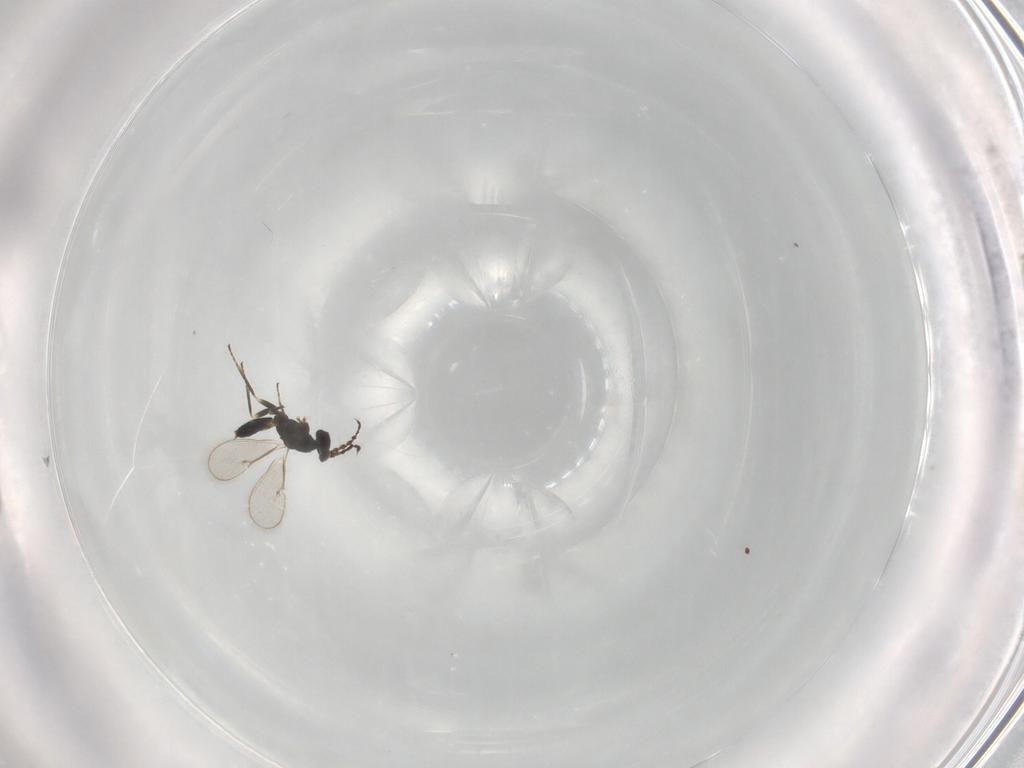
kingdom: Animalia
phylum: Arthropoda
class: Insecta
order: Hymenoptera
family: Eulophidae
